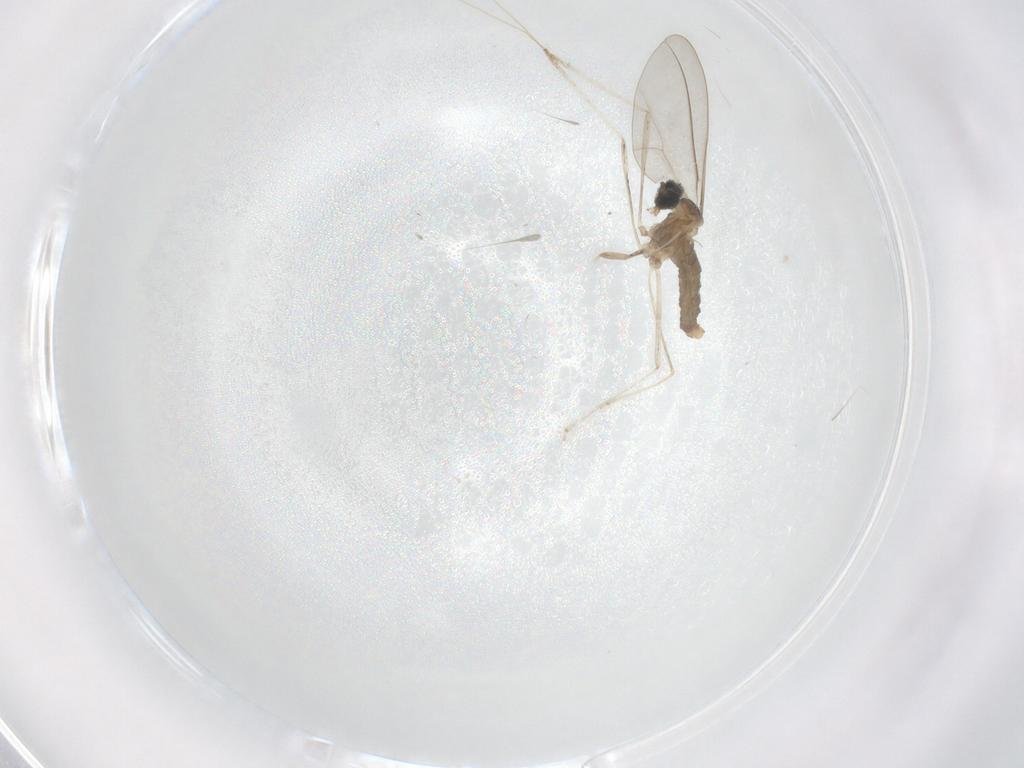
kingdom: Animalia
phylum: Arthropoda
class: Insecta
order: Diptera
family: Cecidomyiidae
